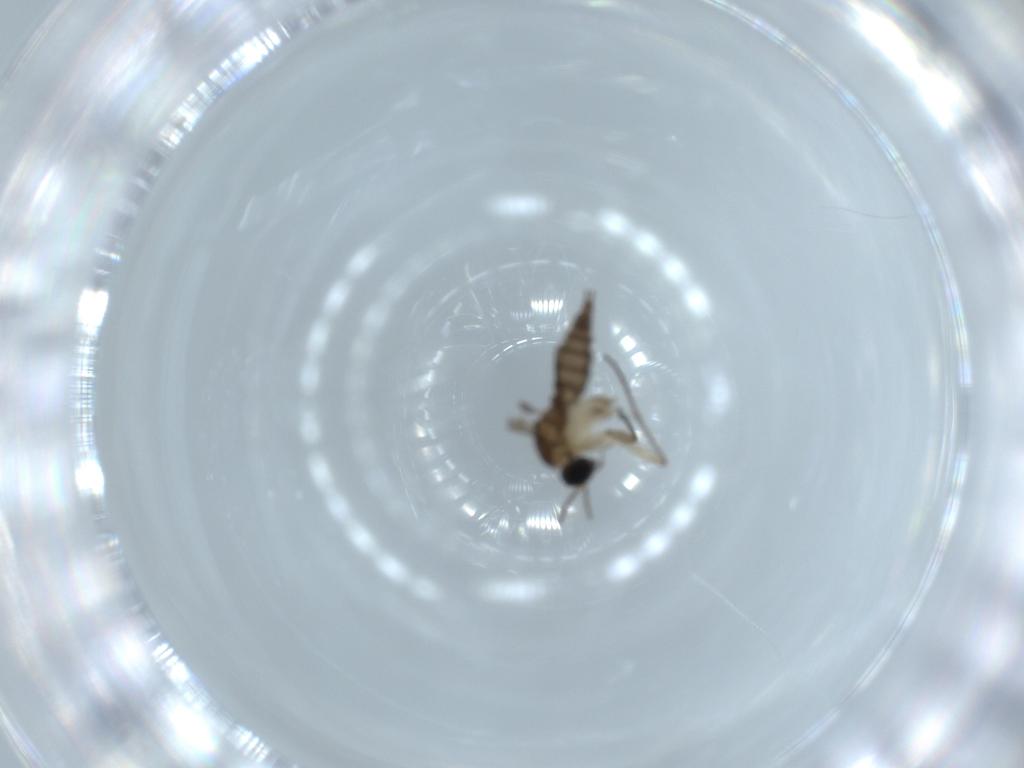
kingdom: Animalia
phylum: Arthropoda
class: Insecta
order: Diptera
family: Sciaridae
